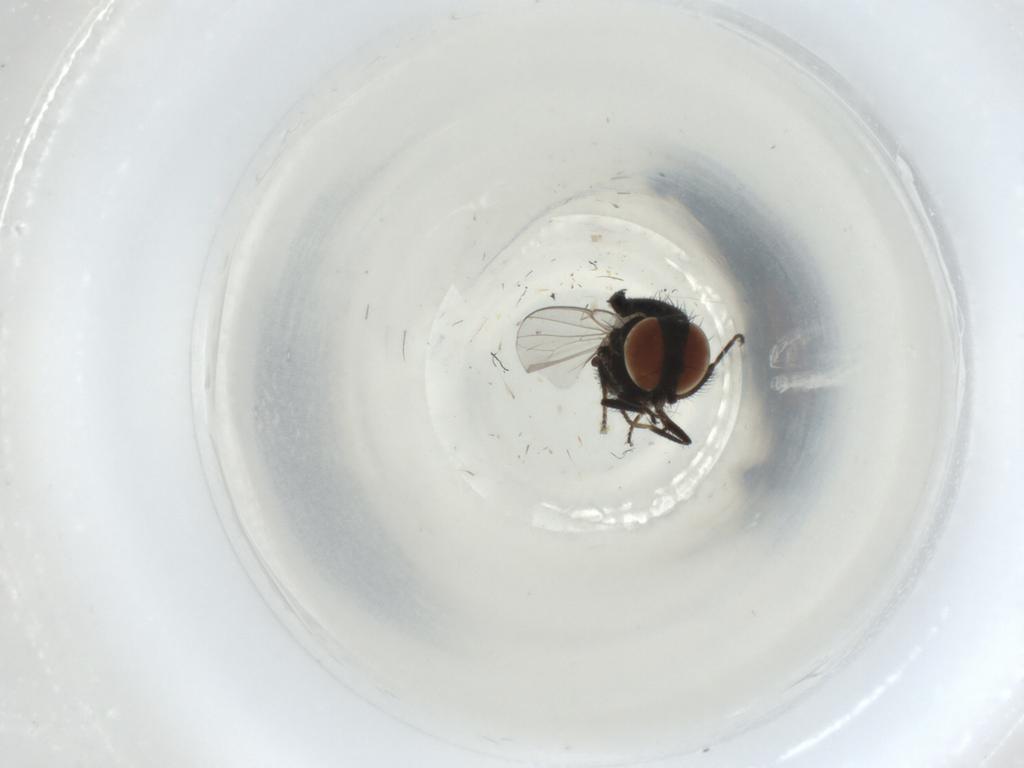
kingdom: Animalia
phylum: Arthropoda
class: Insecta
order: Diptera
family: Milichiidae
